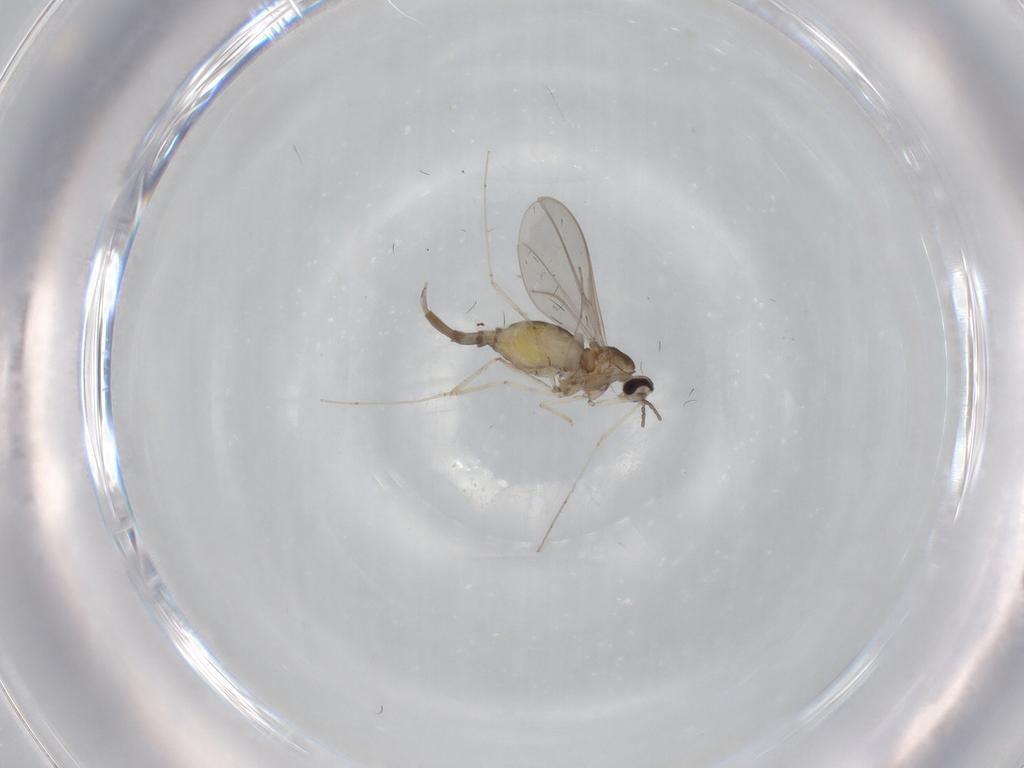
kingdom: Animalia
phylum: Arthropoda
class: Insecta
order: Diptera
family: Cecidomyiidae
